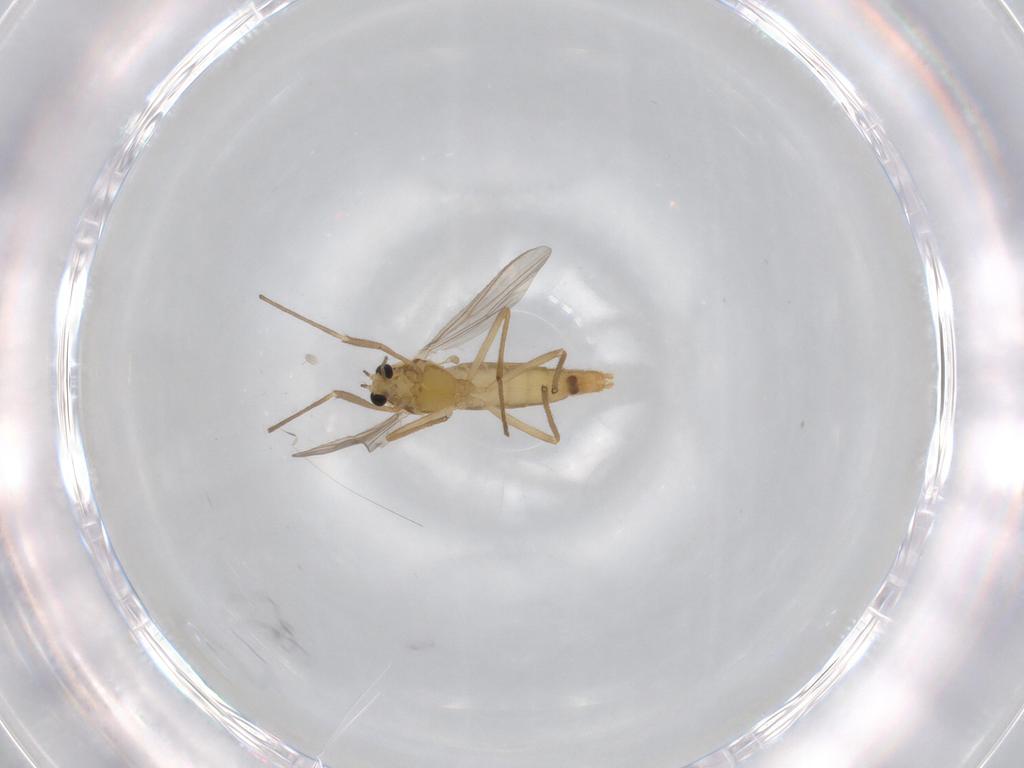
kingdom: Animalia
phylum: Arthropoda
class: Insecta
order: Diptera
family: Chironomidae
